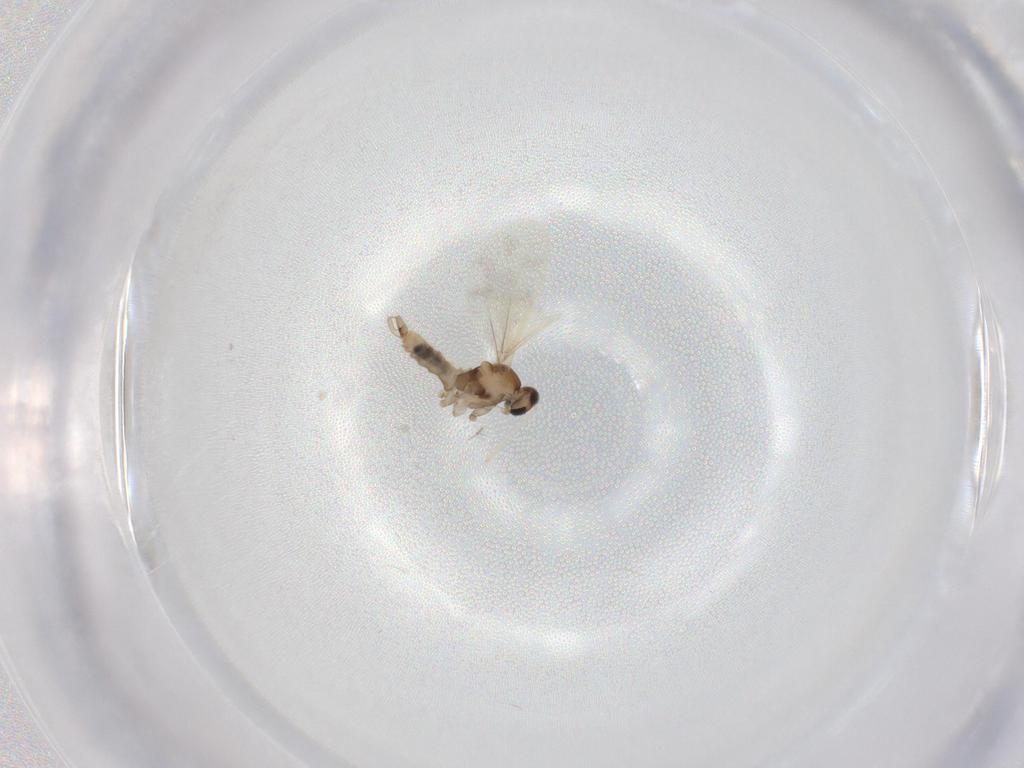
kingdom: Animalia
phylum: Arthropoda
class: Insecta
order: Diptera
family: Cecidomyiidae
